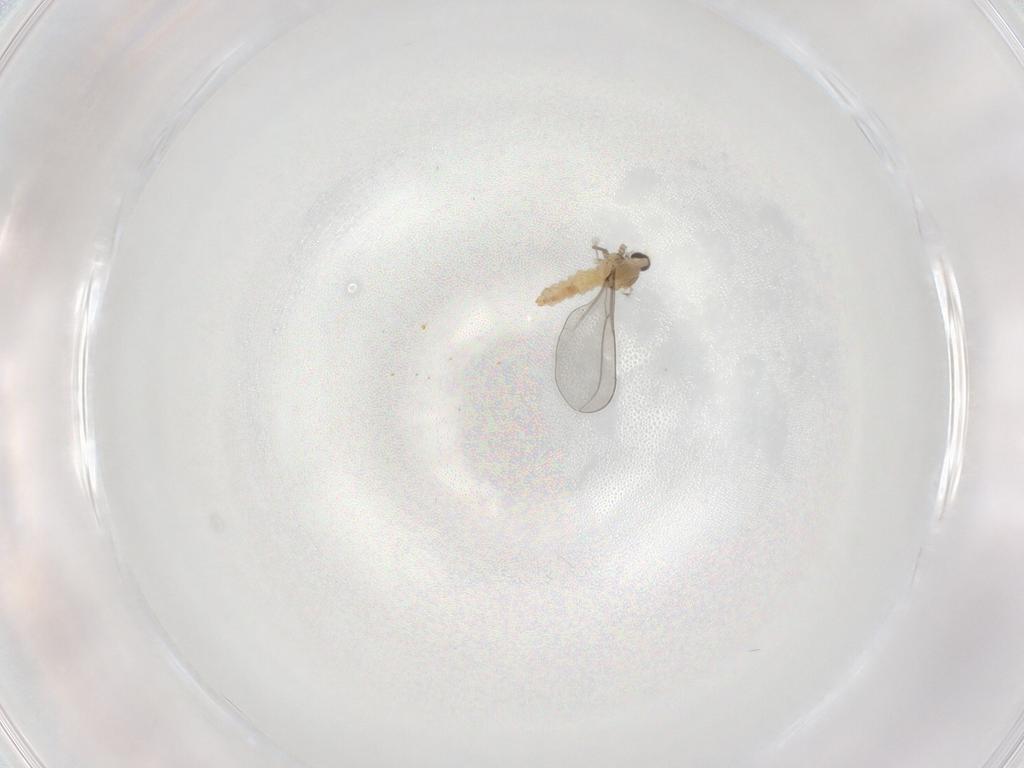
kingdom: Animalia
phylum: Arthropoda
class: Insecta
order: Diptera
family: Cecidomyiidae
